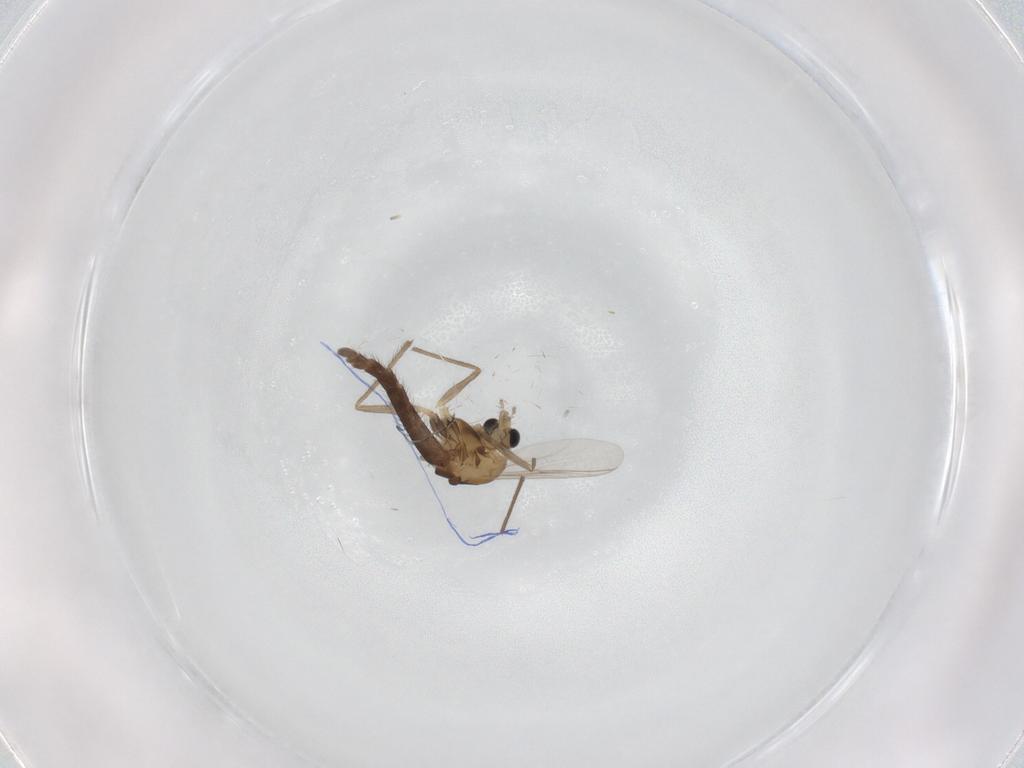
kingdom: Animalia
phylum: Arthropoda
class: Insecta
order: Diptera
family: Chironomidae
